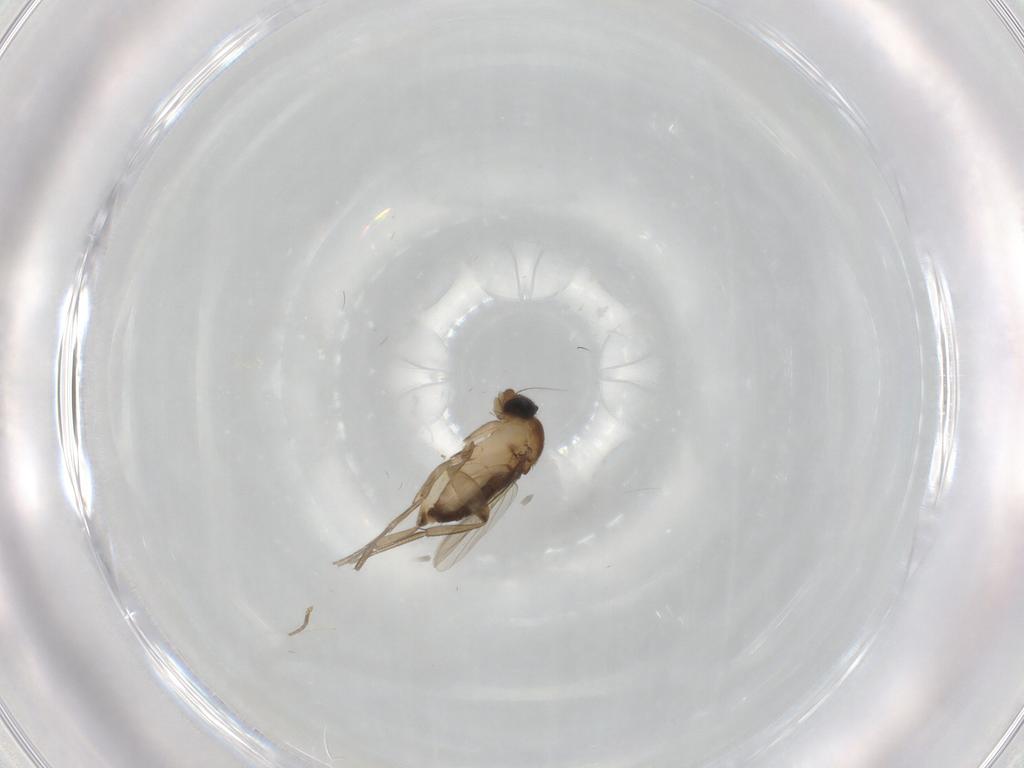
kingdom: Animalia
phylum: Arthropoda
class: Insecta
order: Diptera
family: Phoridae
